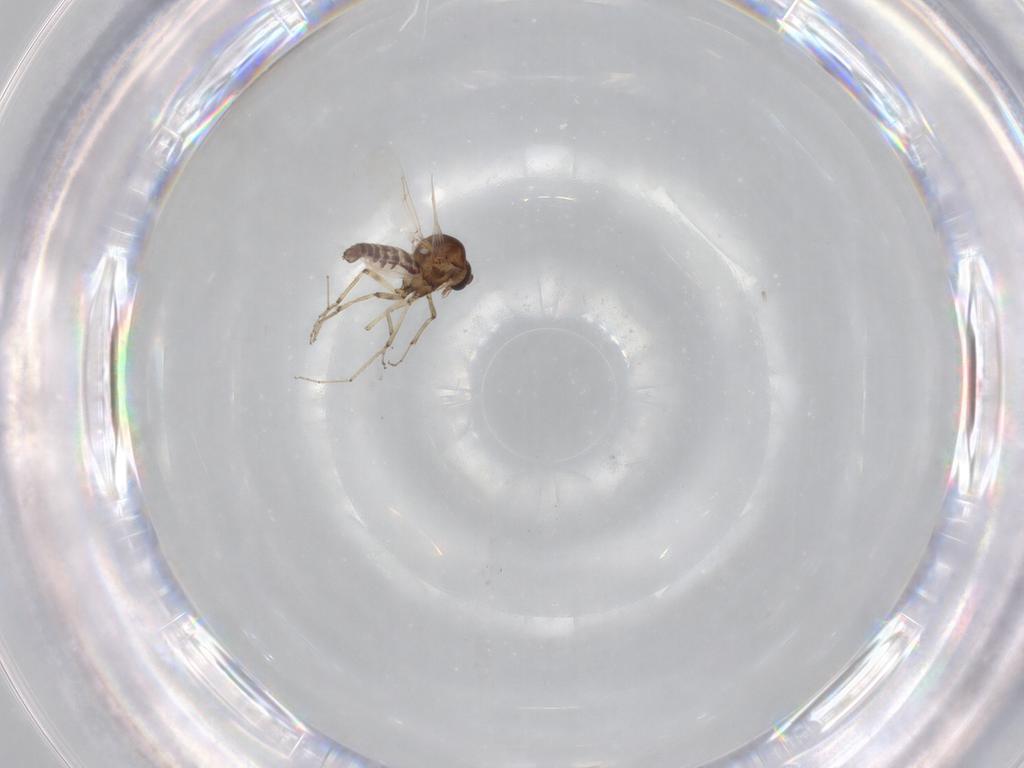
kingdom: Animalia
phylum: Arthropoda
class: Insecta
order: Diptera
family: Ceratopogonidae
